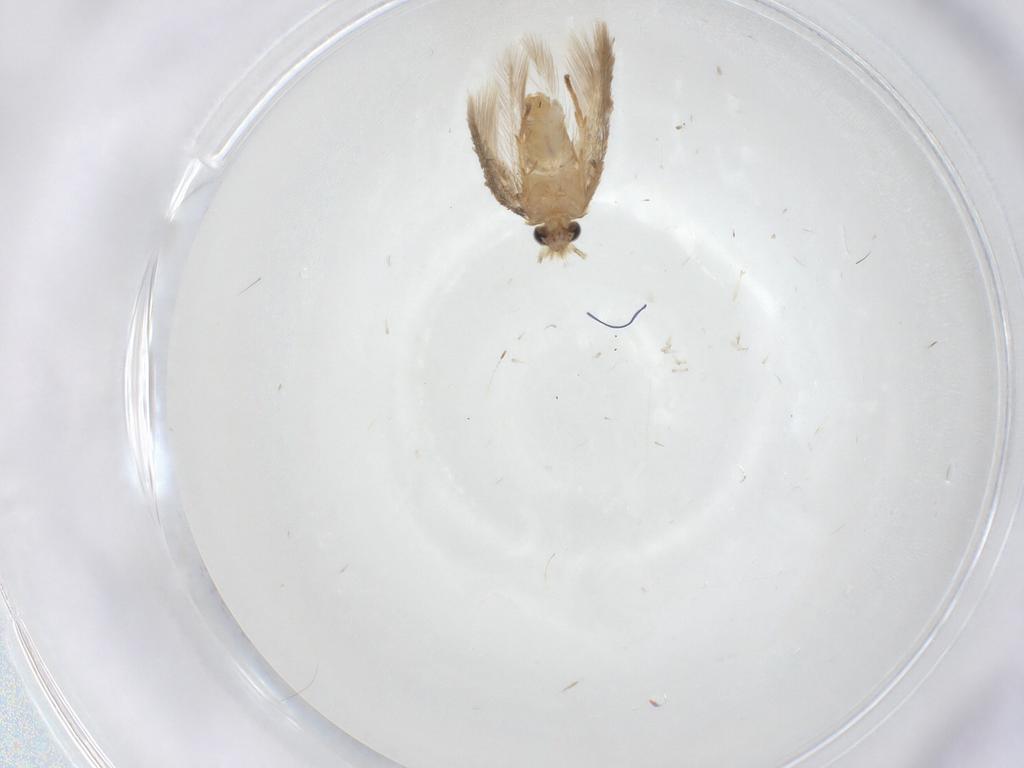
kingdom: Animalia
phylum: Arthropoda
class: Insecta
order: Lepidoptera
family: Nepticulidae
